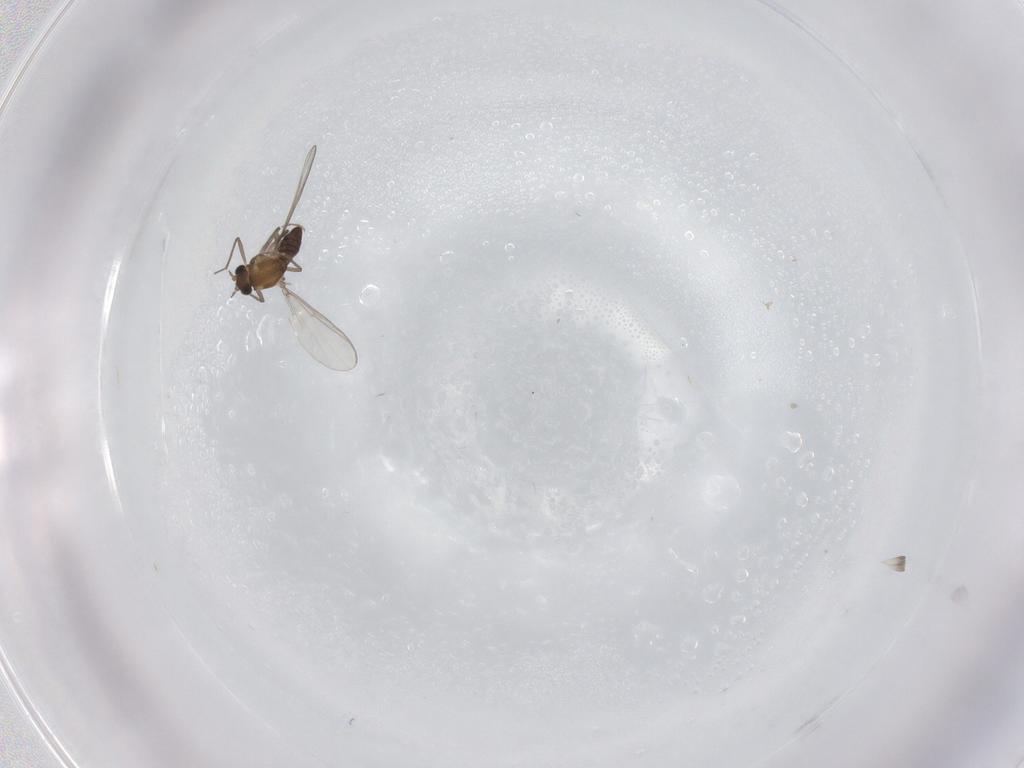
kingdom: Animalia
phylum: Arthropoda
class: Insecta
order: Diptera
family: Chironomidae
